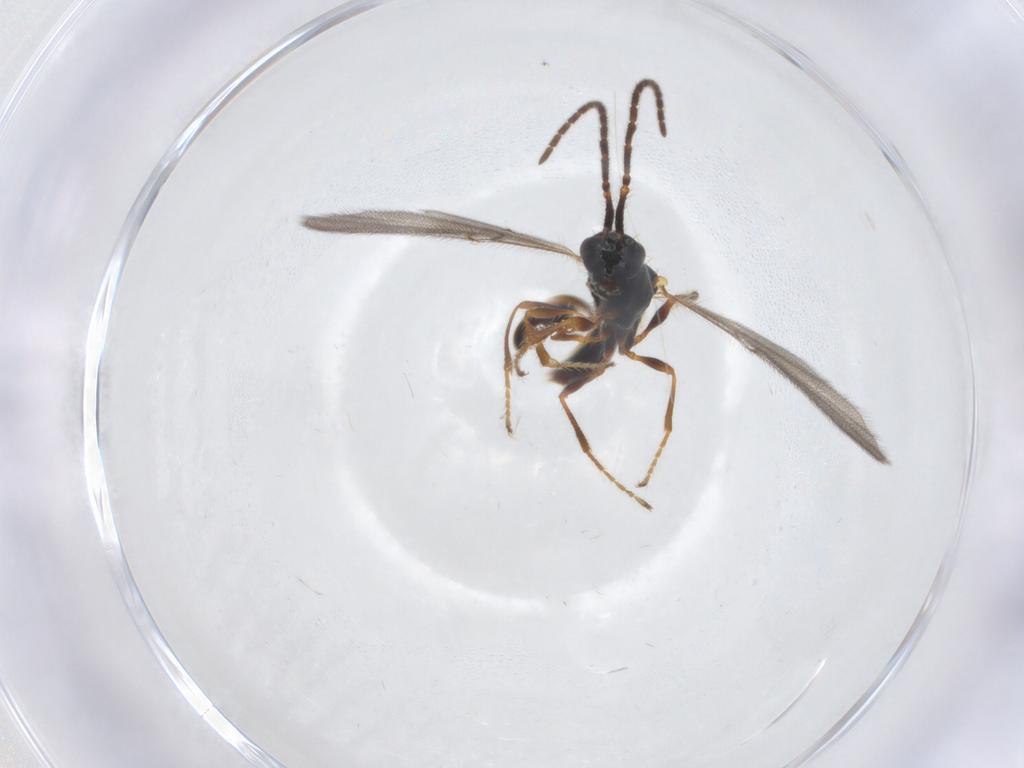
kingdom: Animalia
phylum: Arthropoda
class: Insecta
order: Hymenoptera
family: Diapriidae
